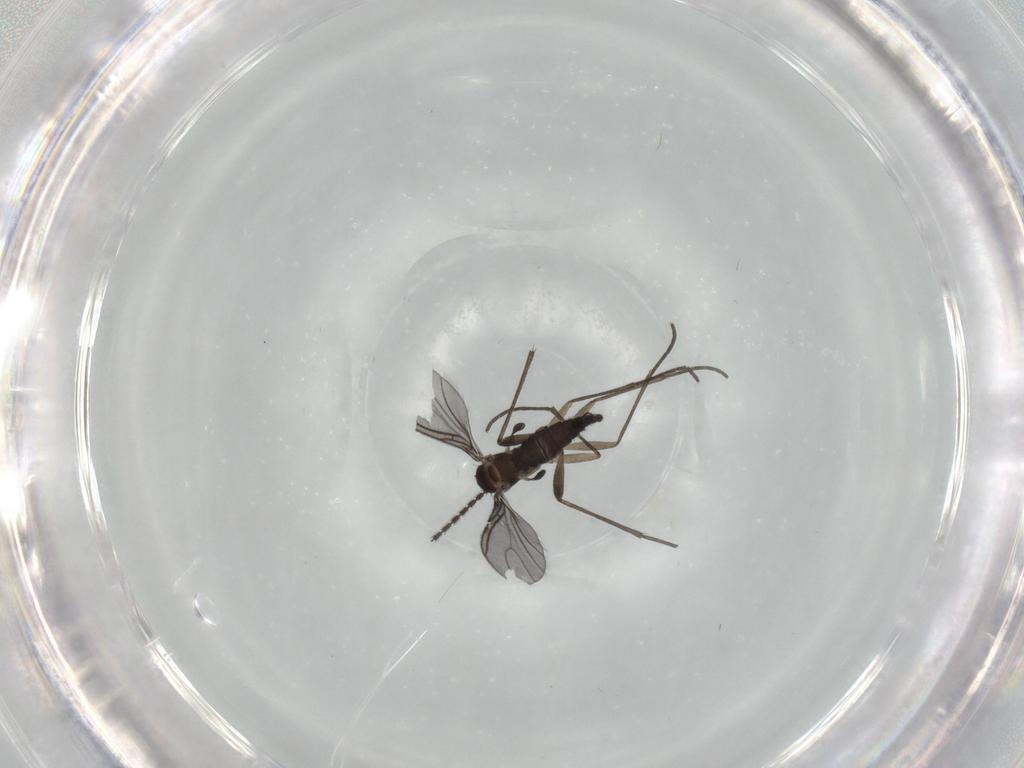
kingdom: Animalia
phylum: Arthropoda
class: Insecta
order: Diptera
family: Sciaridae
